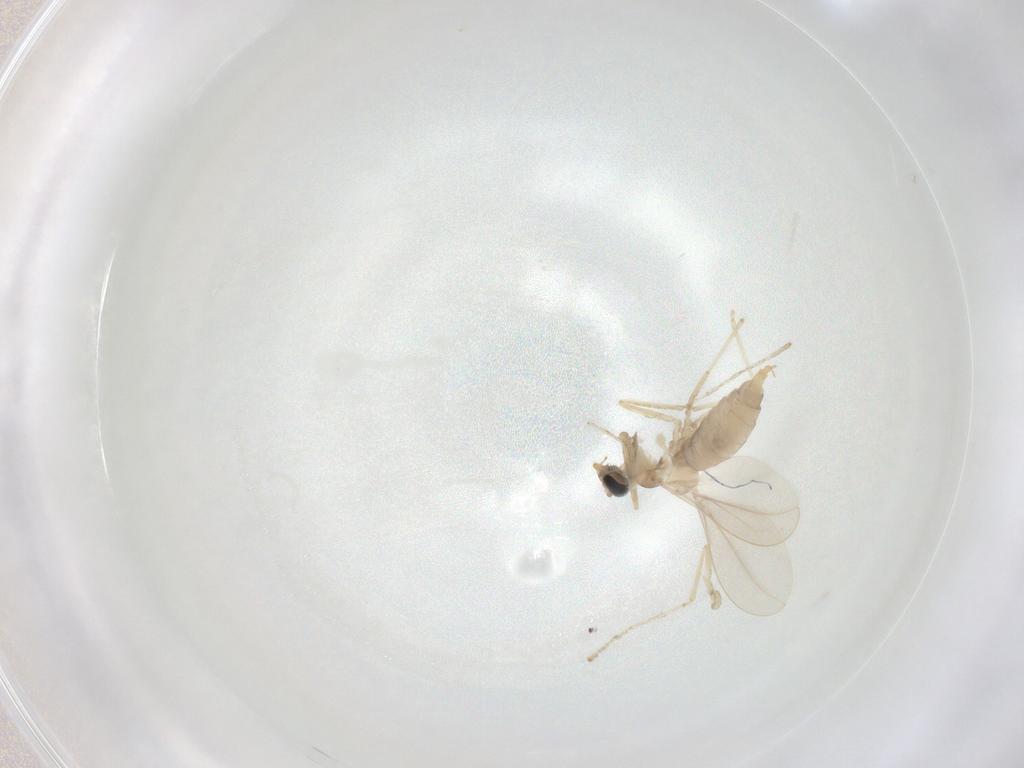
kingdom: Animalia
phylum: Arthropoda
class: Insecta
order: Diptera
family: Cecidomyiidae
